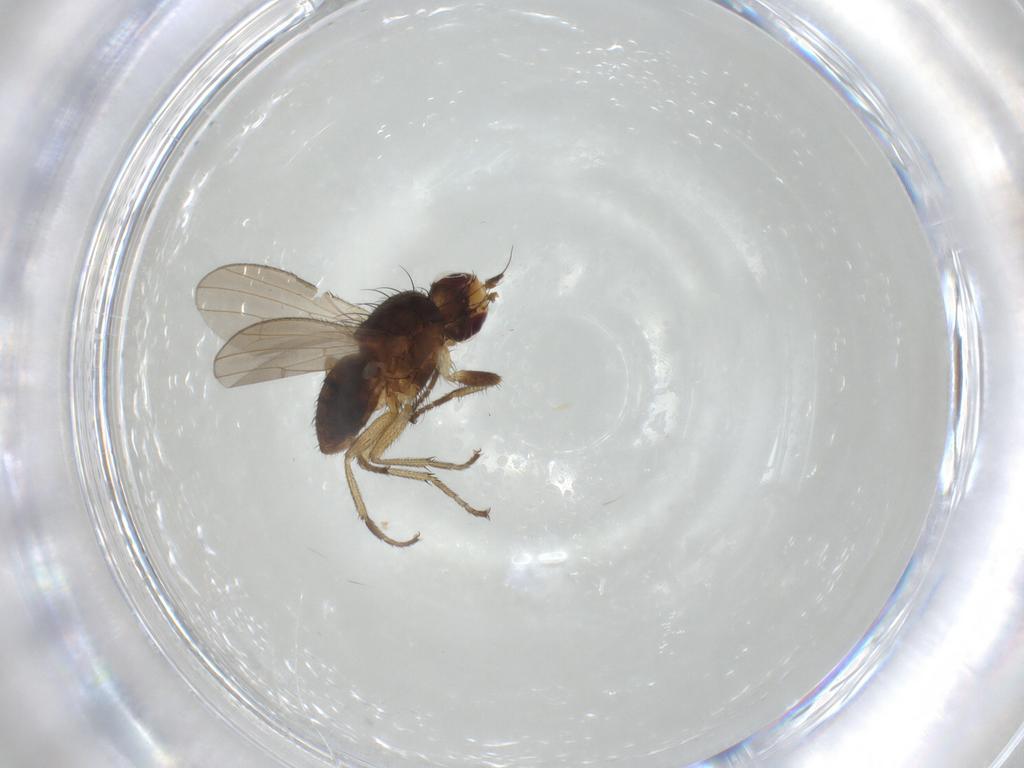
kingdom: Animalia
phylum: Arthropoda
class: Insecta
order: Diptera
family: Heleomyzidae
